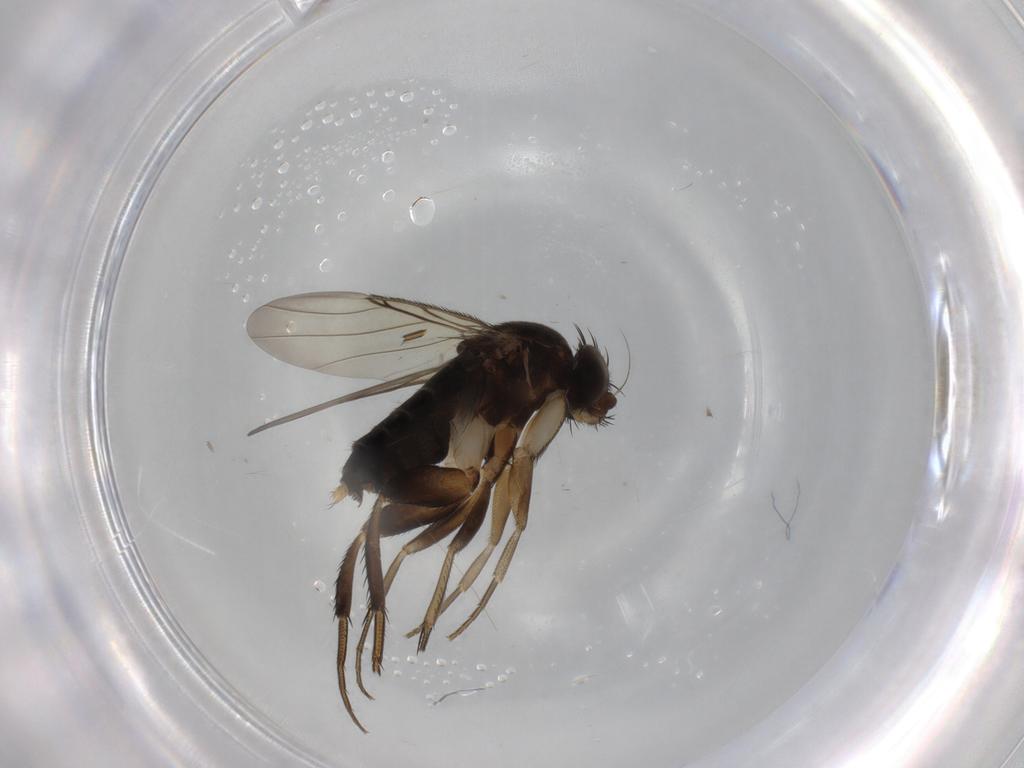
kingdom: Animalia
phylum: Arthropoda
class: Insecta
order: Diptera
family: Phoridae
